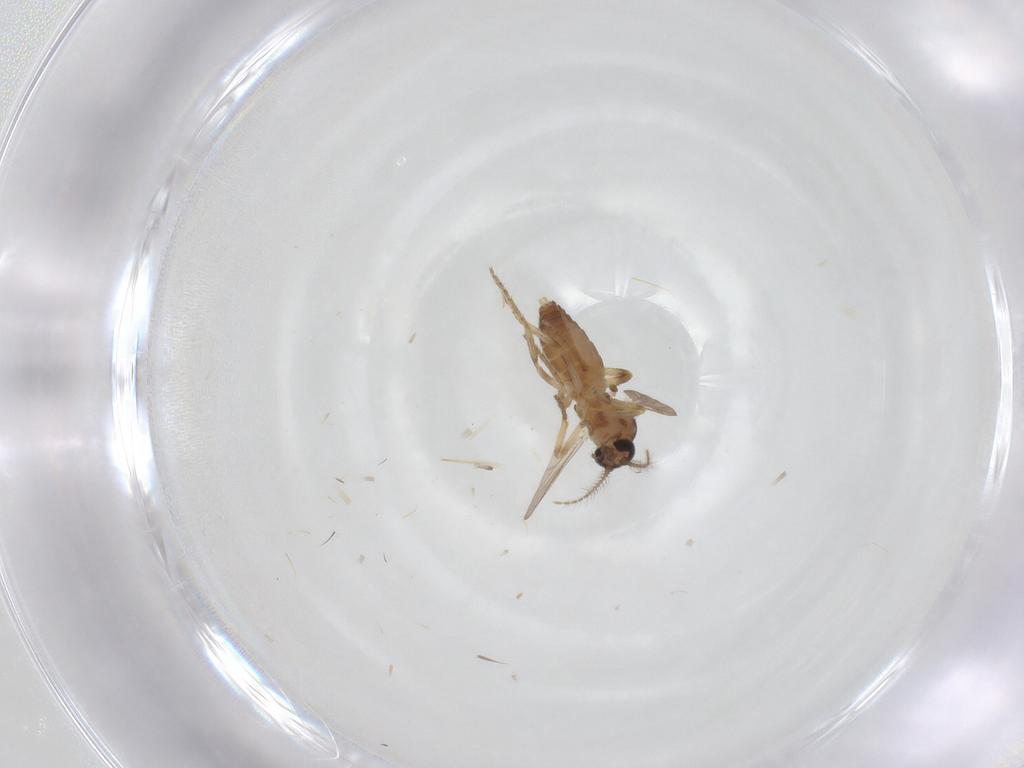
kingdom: Animalia
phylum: Arthropoda
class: Insecta
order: Diptera
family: Ceratopogonidae
